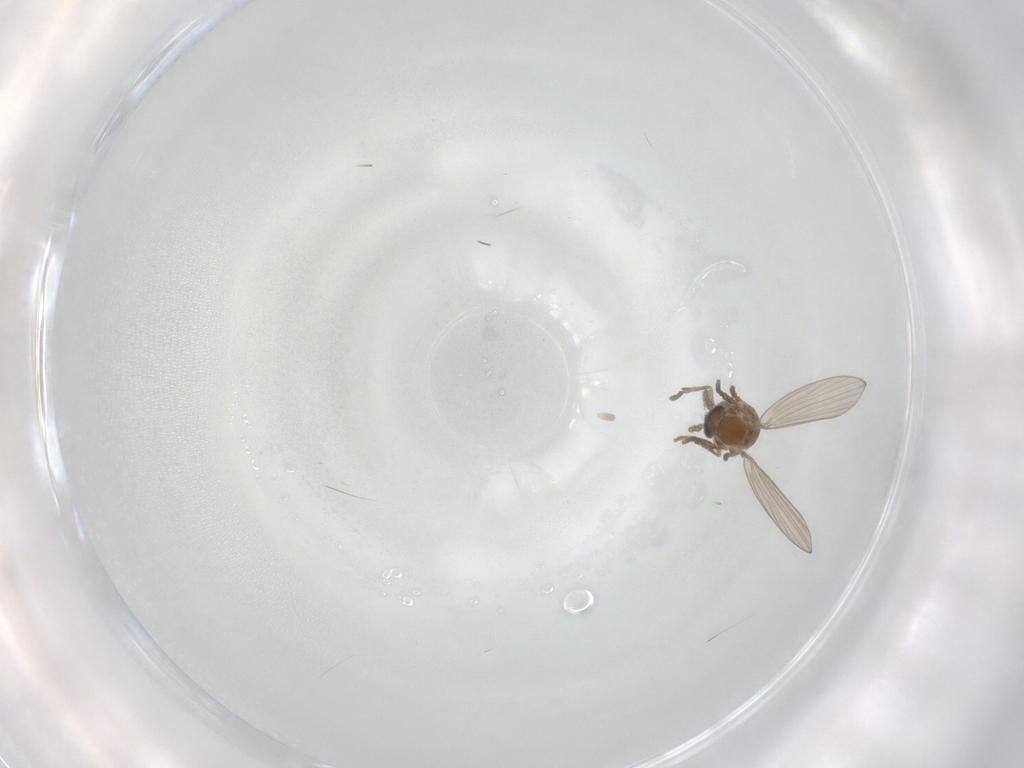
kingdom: Animalia
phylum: Arthropoda
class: Insecta
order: Diptera
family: Psychodidae
